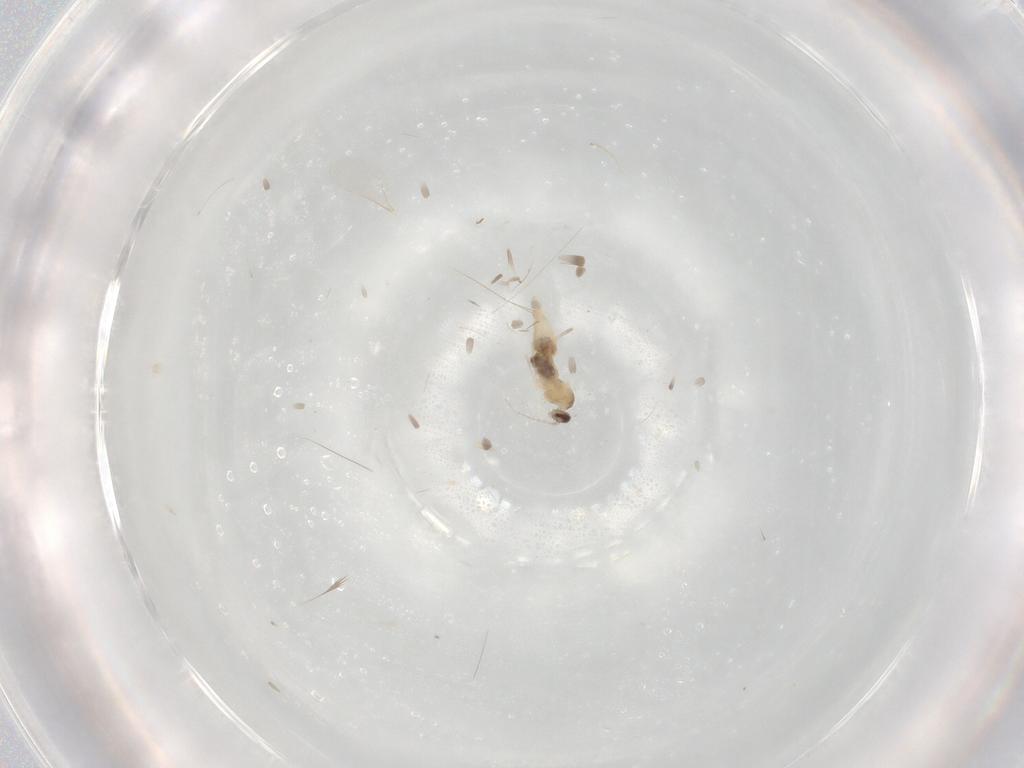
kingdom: Animalia
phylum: Arthropoda
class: Insecta
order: Diptera
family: Cecidomyiidae
